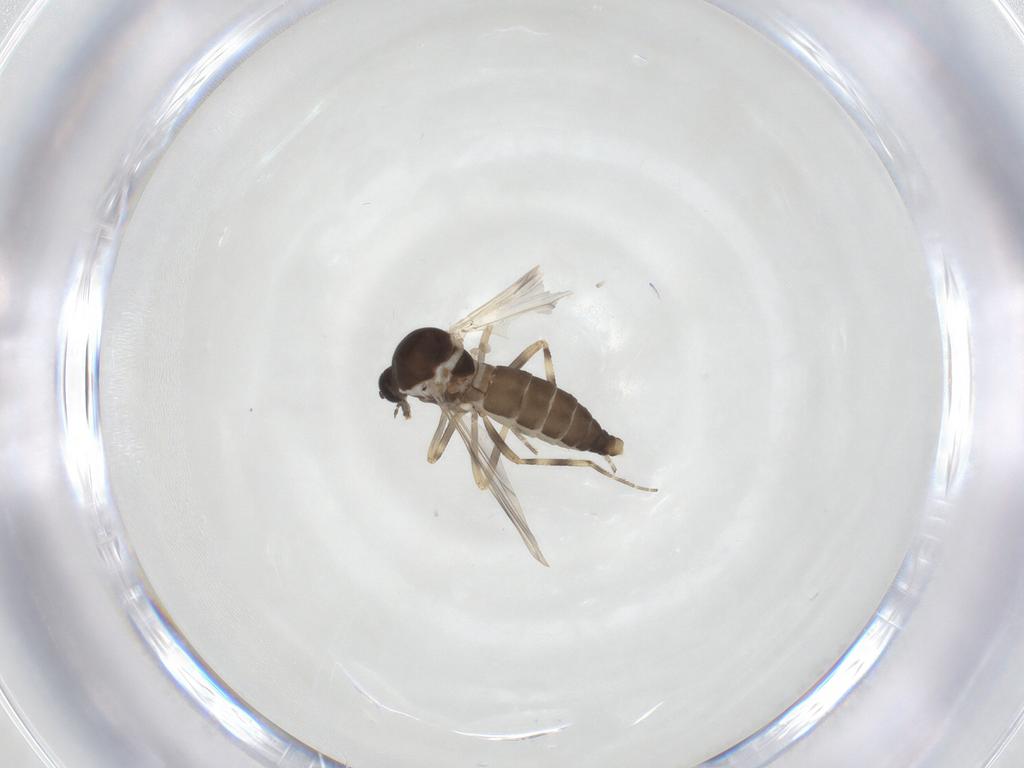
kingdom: Animalia
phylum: Arthropoda
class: Insecta
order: Diptera
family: Ceratopogonidae
